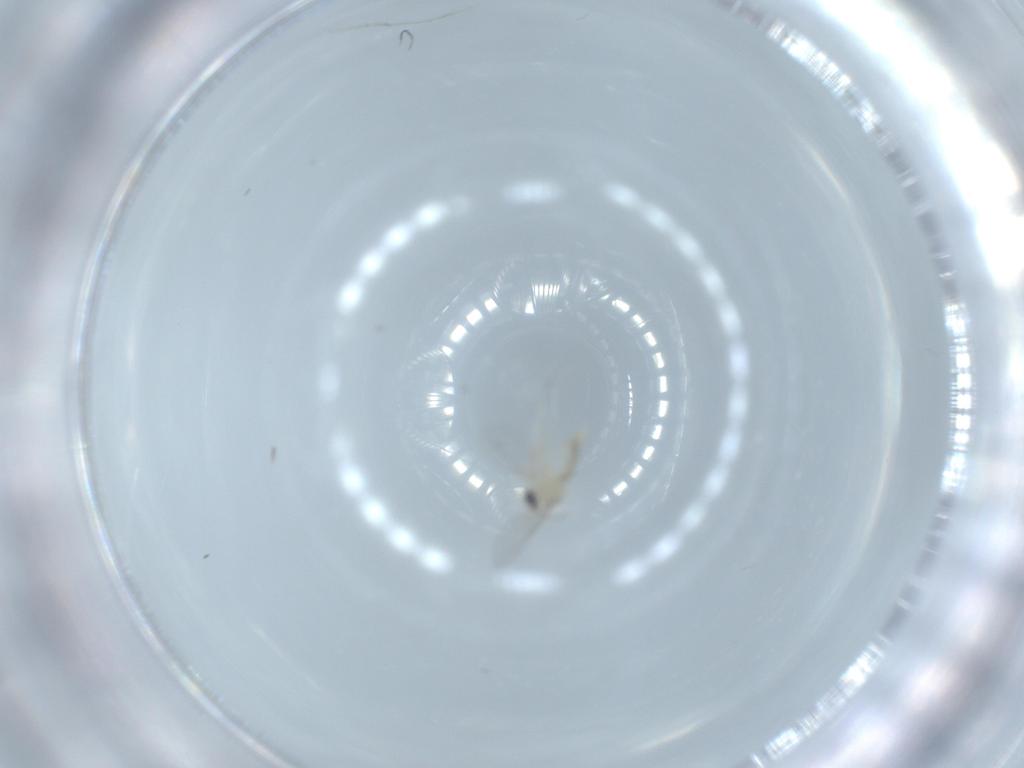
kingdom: Animalia
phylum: Arthropoda
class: Insecta
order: Diptera
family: Cecidomyiidae
